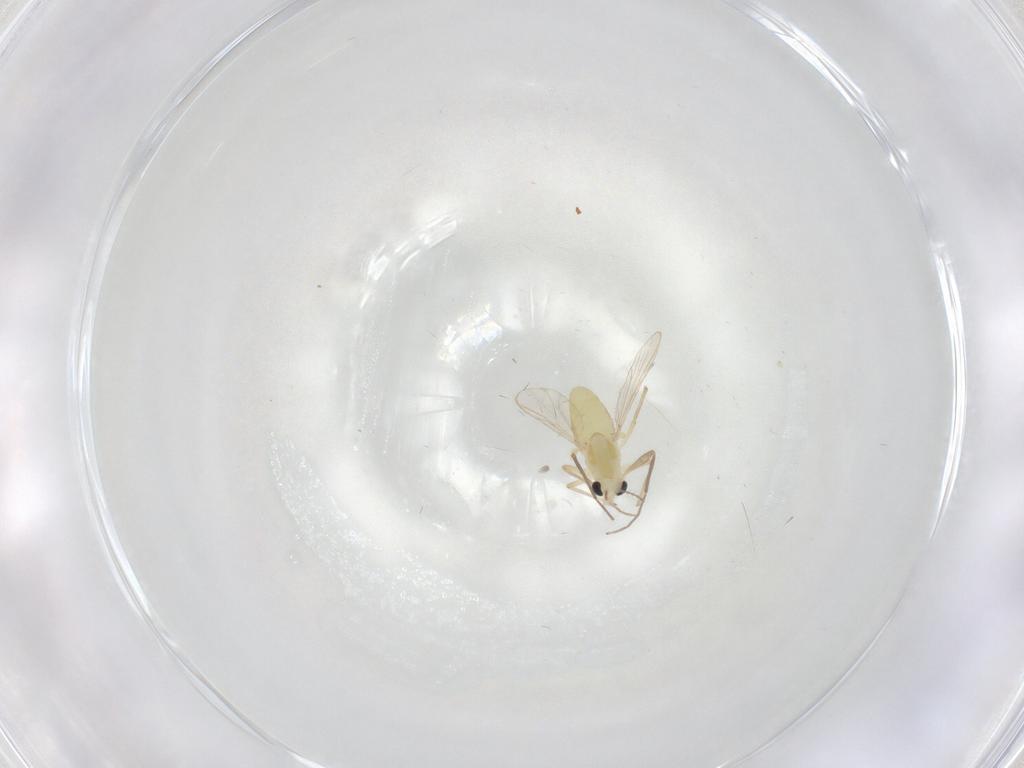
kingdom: Animalia
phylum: Arthropoda
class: Insecta
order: Diptera
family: Chironomidae
